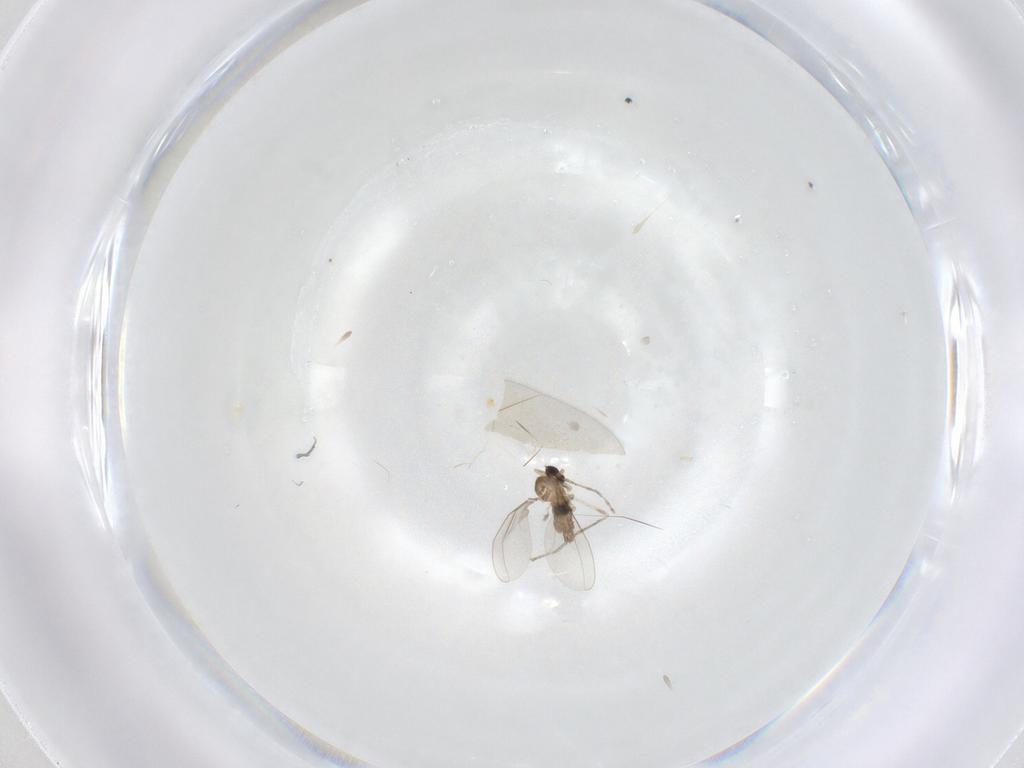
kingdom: Animalia
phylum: Arthropoda
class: Insecta
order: Diptera
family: Cecidomyiidae
